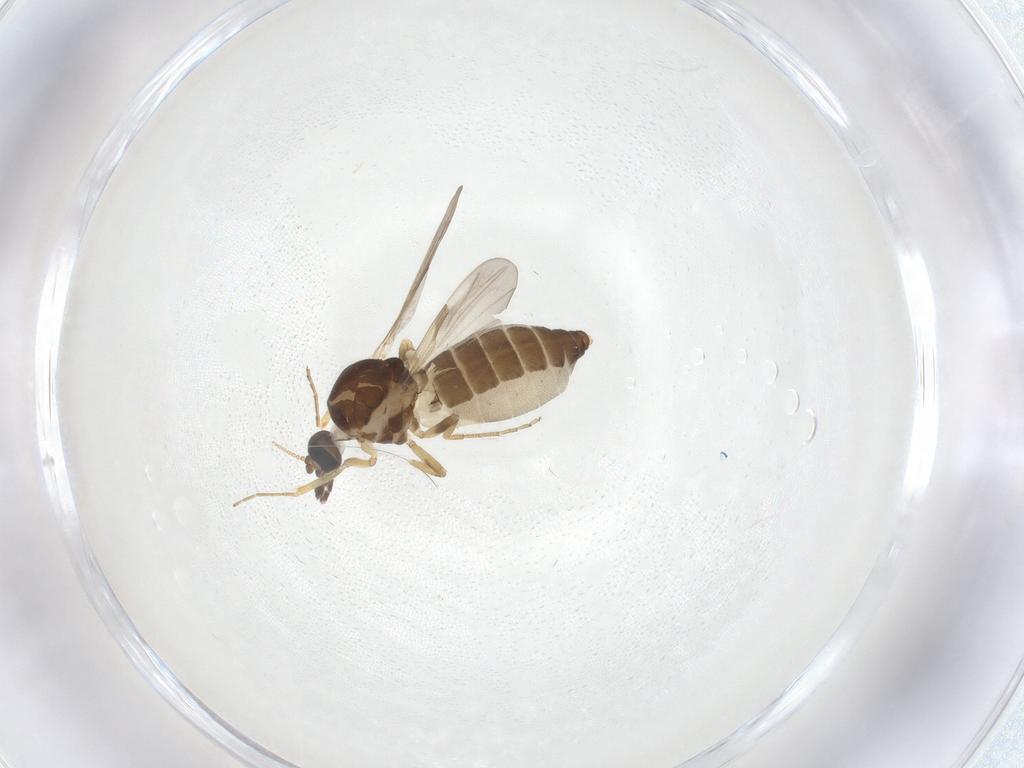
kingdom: Animalia
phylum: Arthropoda
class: Insecta
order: Diptera
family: Ceratopogonidae
